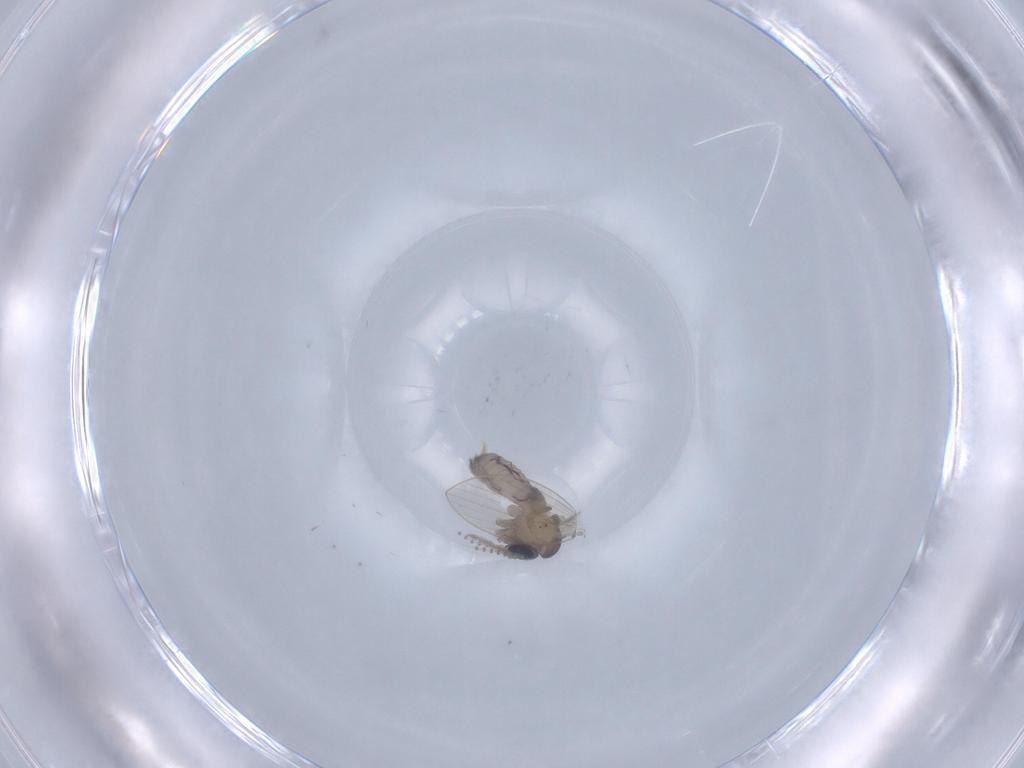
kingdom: Animalia
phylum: Arthropoda
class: Insecta
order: Diptera
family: Psychodidae
